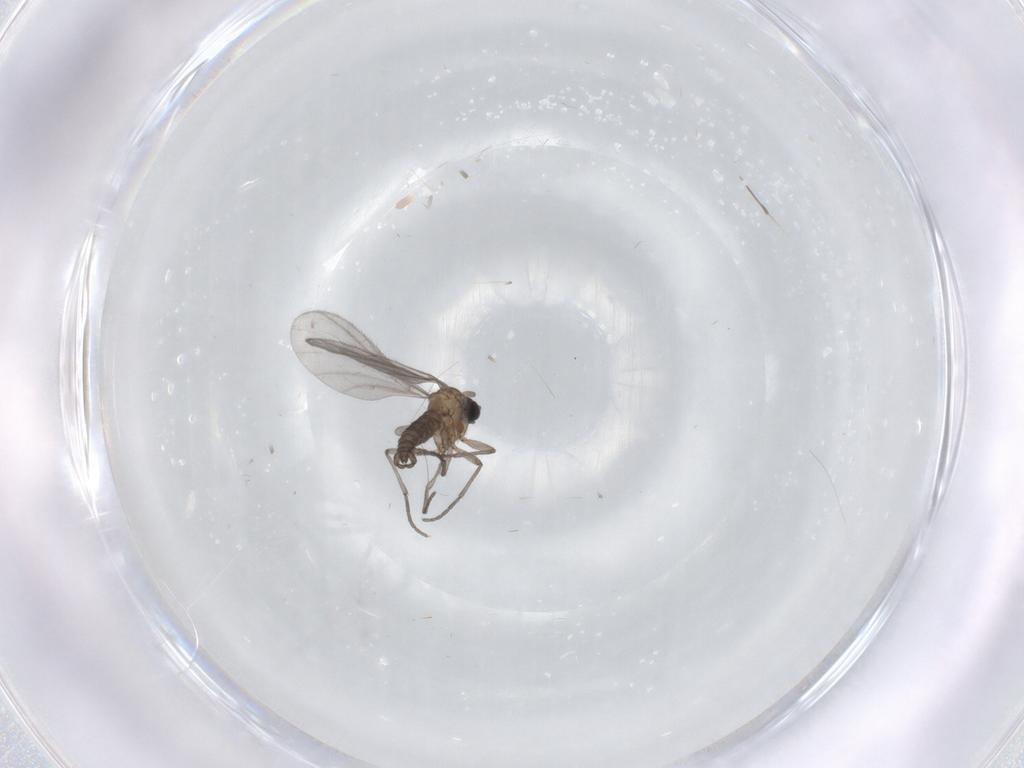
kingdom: Animalia
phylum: Arthropoda
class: Insecta
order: Diptera
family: Sciaridae
